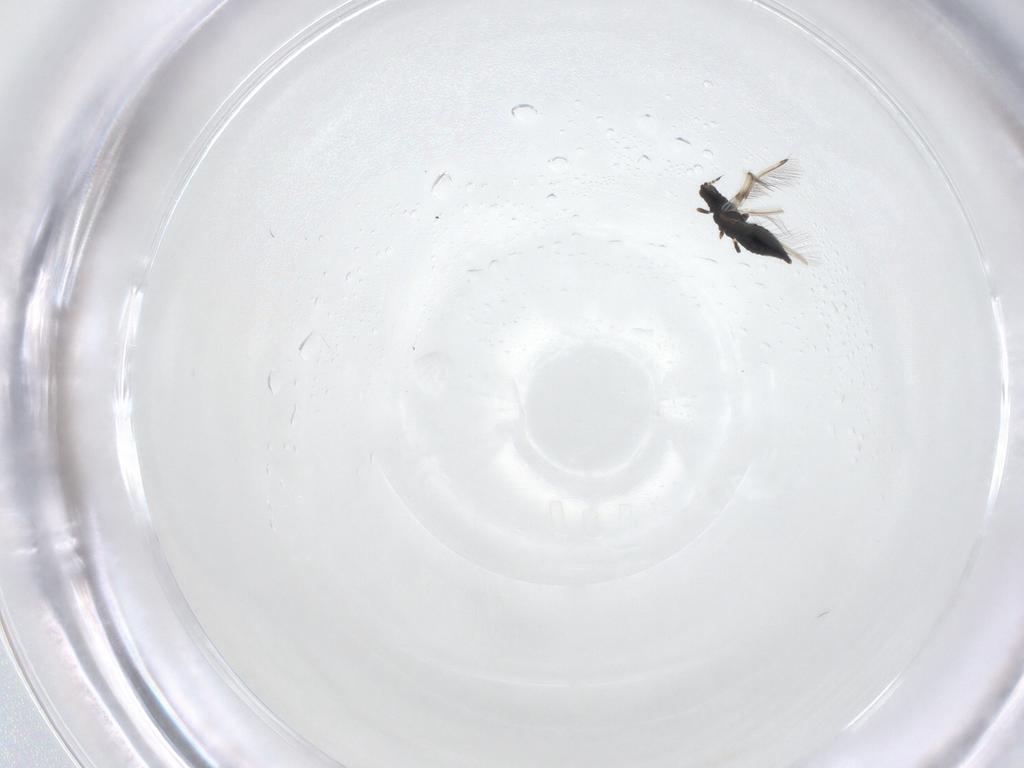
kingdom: Animalia
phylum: Arthropoda
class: Insecta
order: Thysanoptera
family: Thripidae
